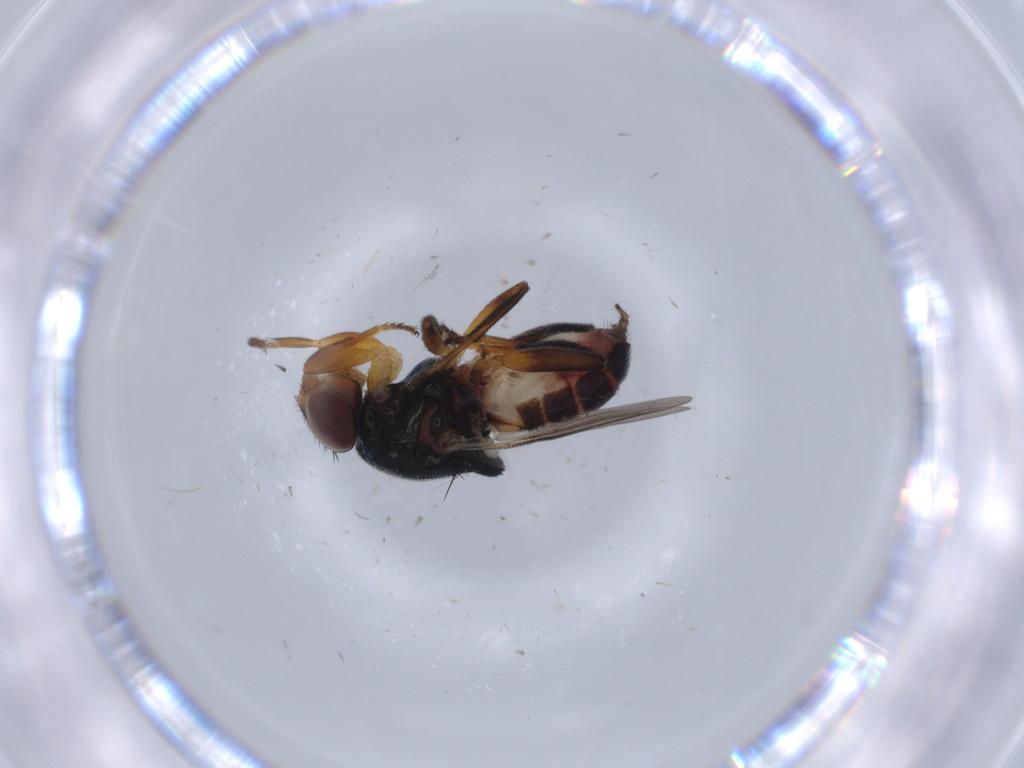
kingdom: Animalia
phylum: Arthropoda
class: Insecta
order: Diptera
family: Chloropidae
